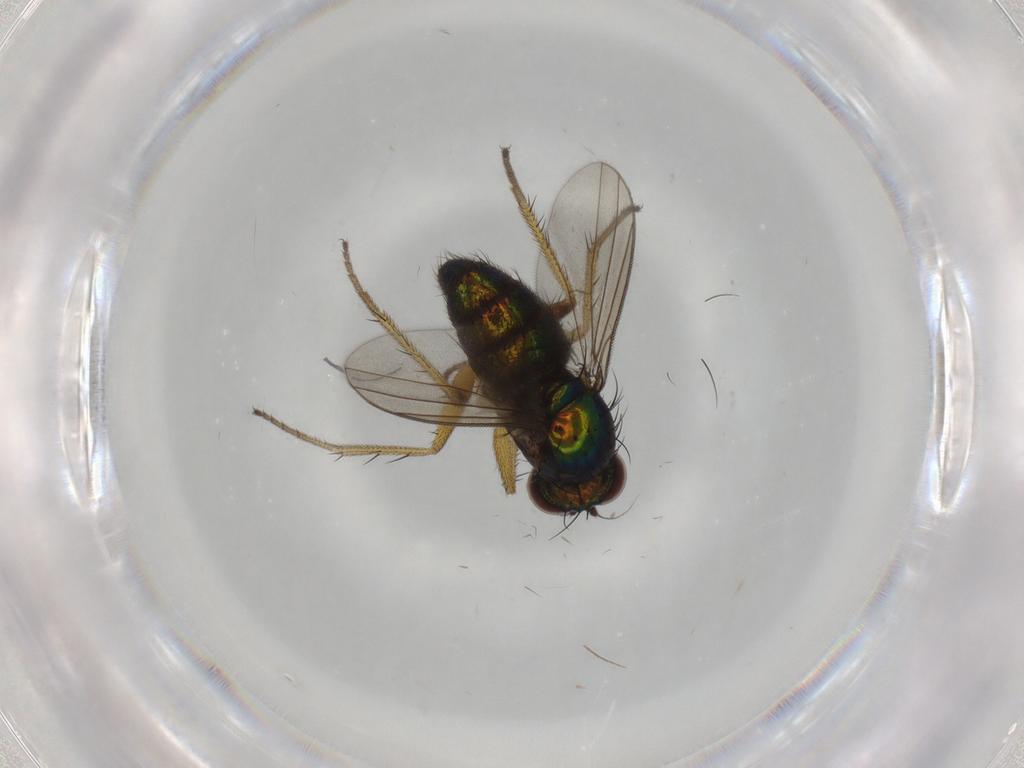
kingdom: Animalia
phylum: Arthropoda
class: Insecta
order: Diptera
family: Dolichopodidae
